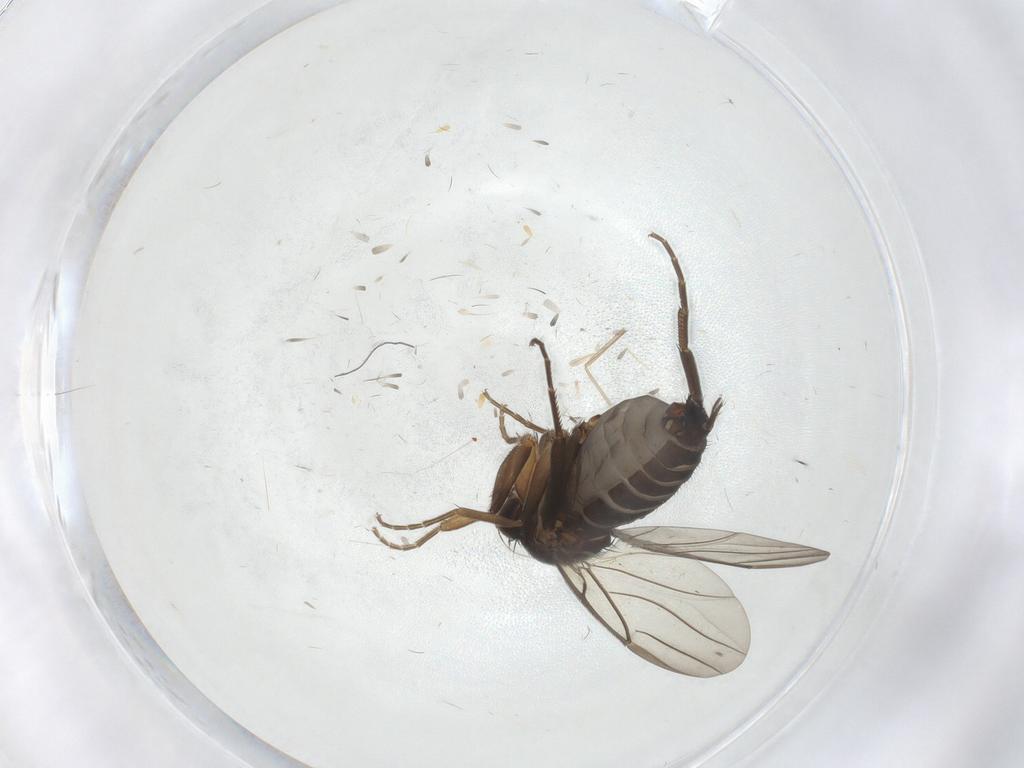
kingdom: Animalia
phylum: Arthropoda
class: Insecta
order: Diptera
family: Cecidomyiidae
